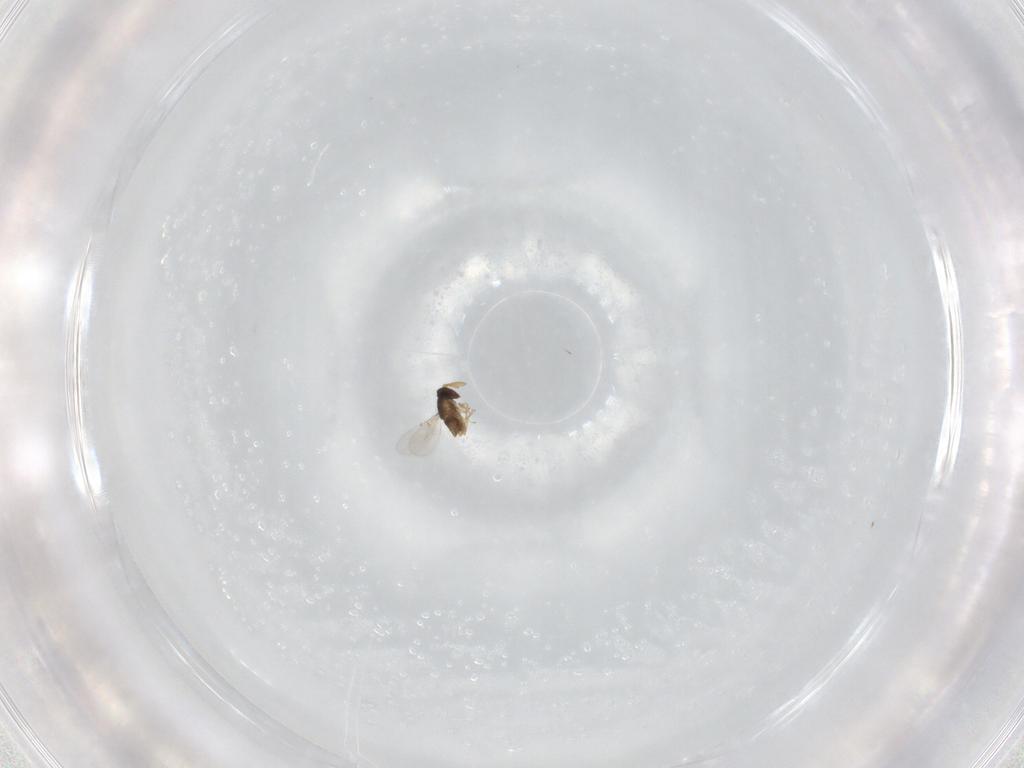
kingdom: Animalia
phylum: Arthropoda
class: Insecta
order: Hymenoptera
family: Encyrtidae
